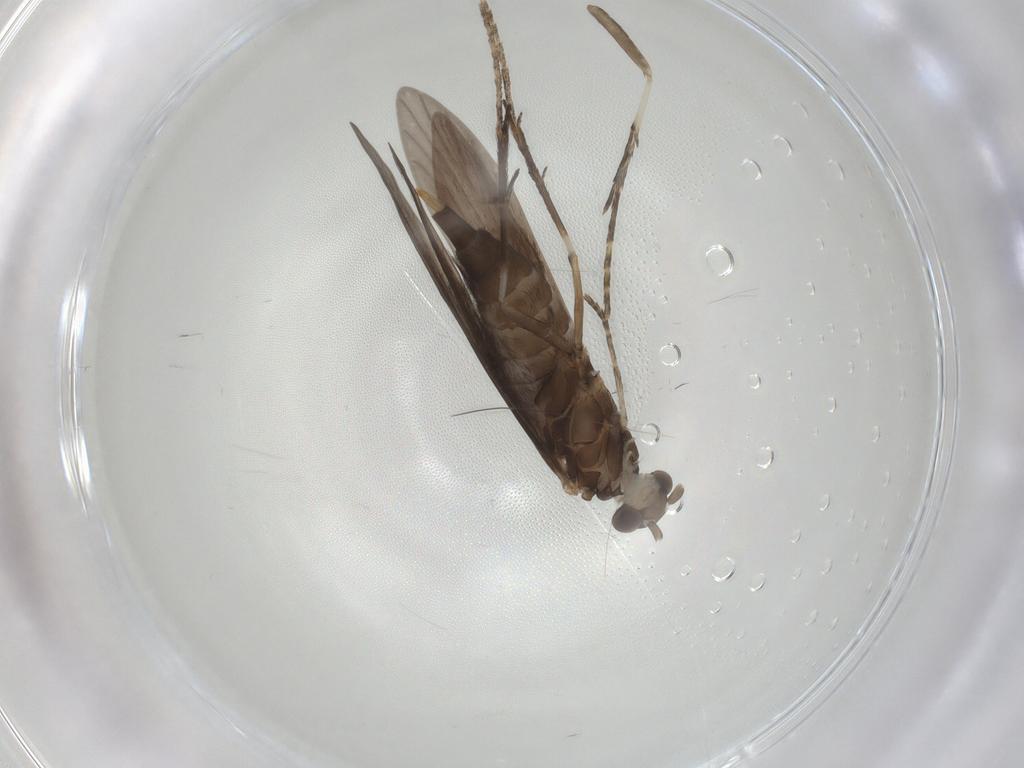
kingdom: Animalia
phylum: Arthropoda
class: Insecta
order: Trichoptera
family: Xiphocentronidae
